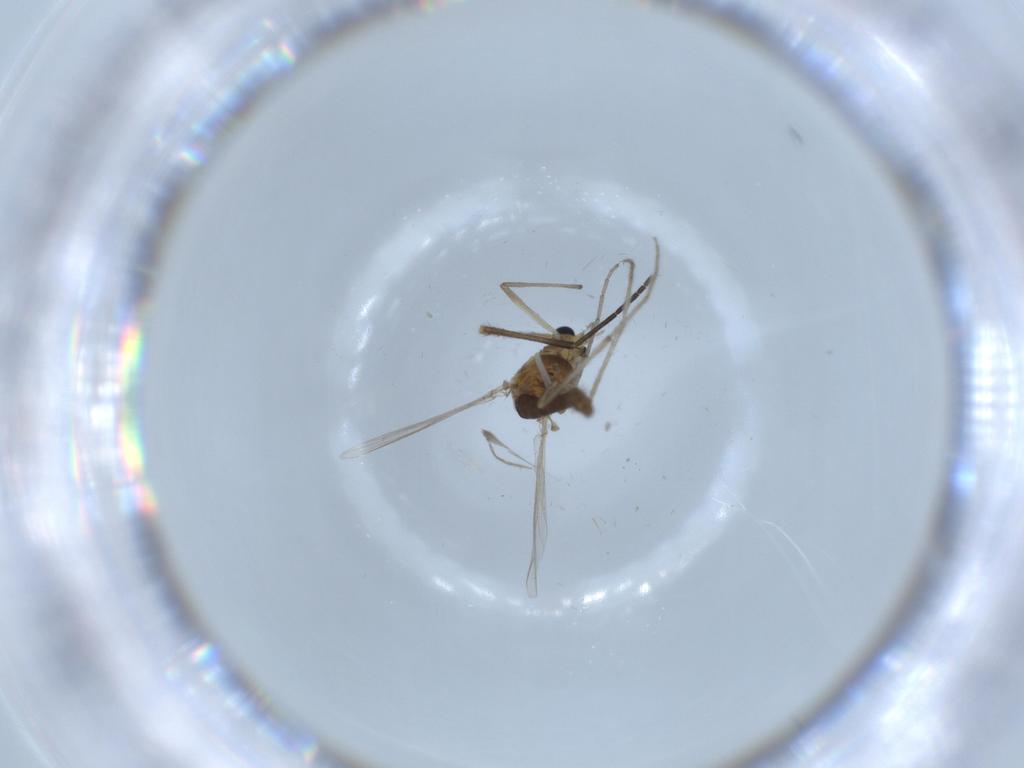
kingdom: Animalia
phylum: Arthropoda
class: Insecta
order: Diptera
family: Chironomidae
